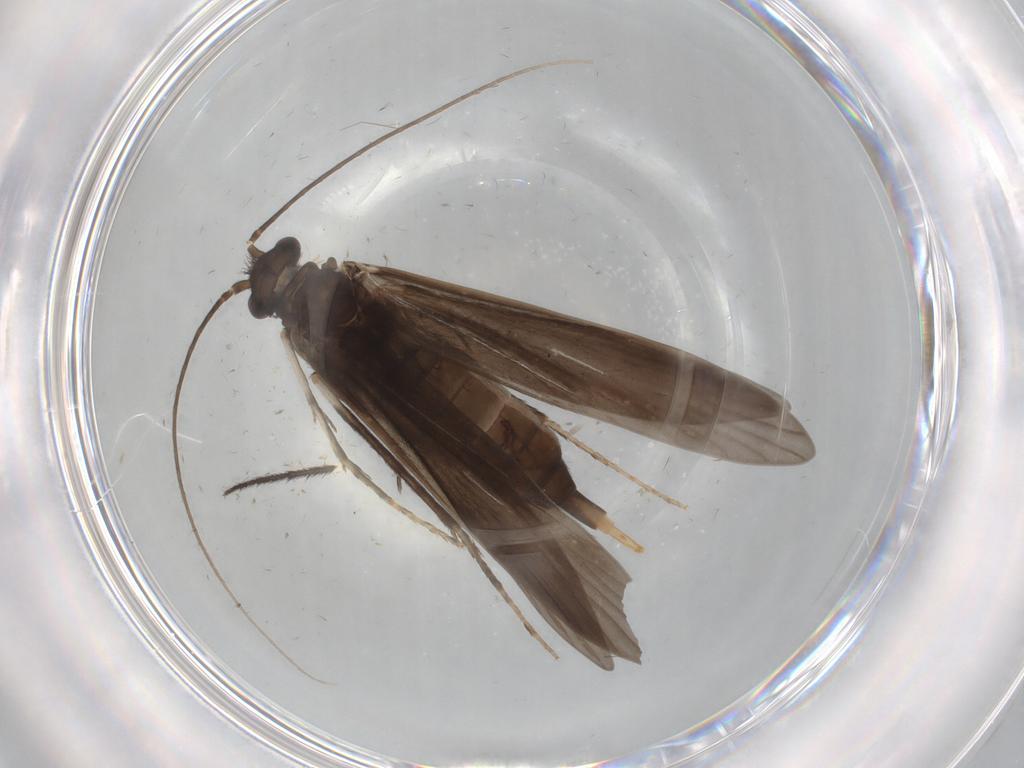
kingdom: Animalia
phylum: Arthropoda
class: Insecta
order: Trichoptera
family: Xiphocentronidae
